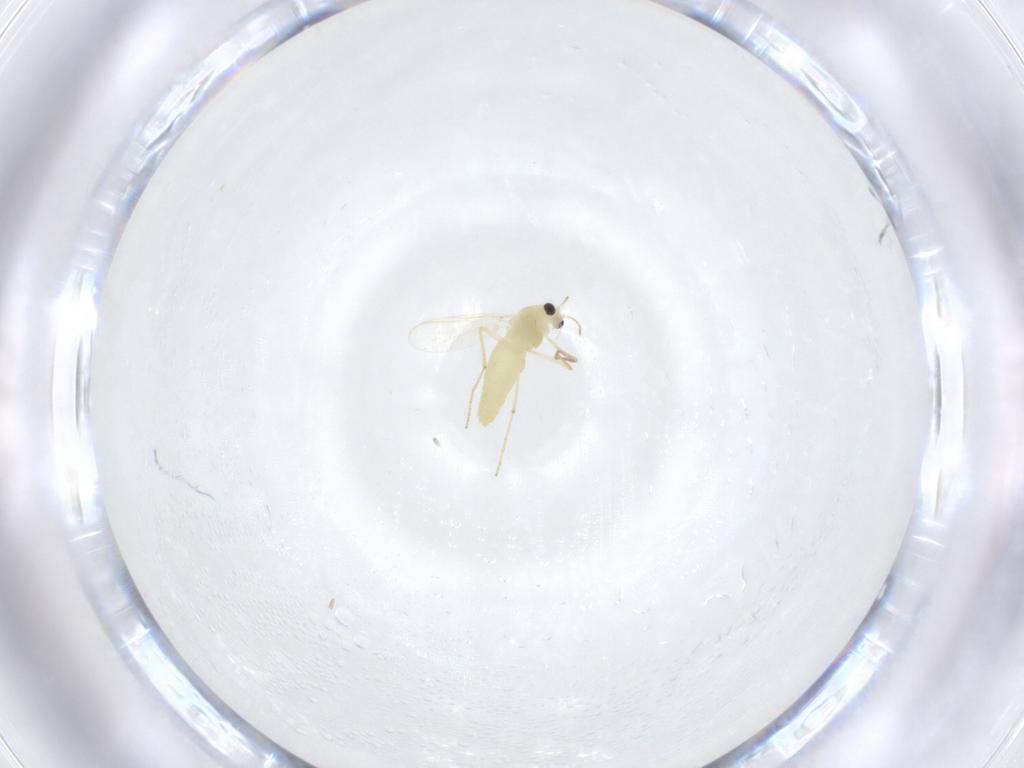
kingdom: Animalia
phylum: Arthropoda
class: Insecta
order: Diptera
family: Chironomidae
